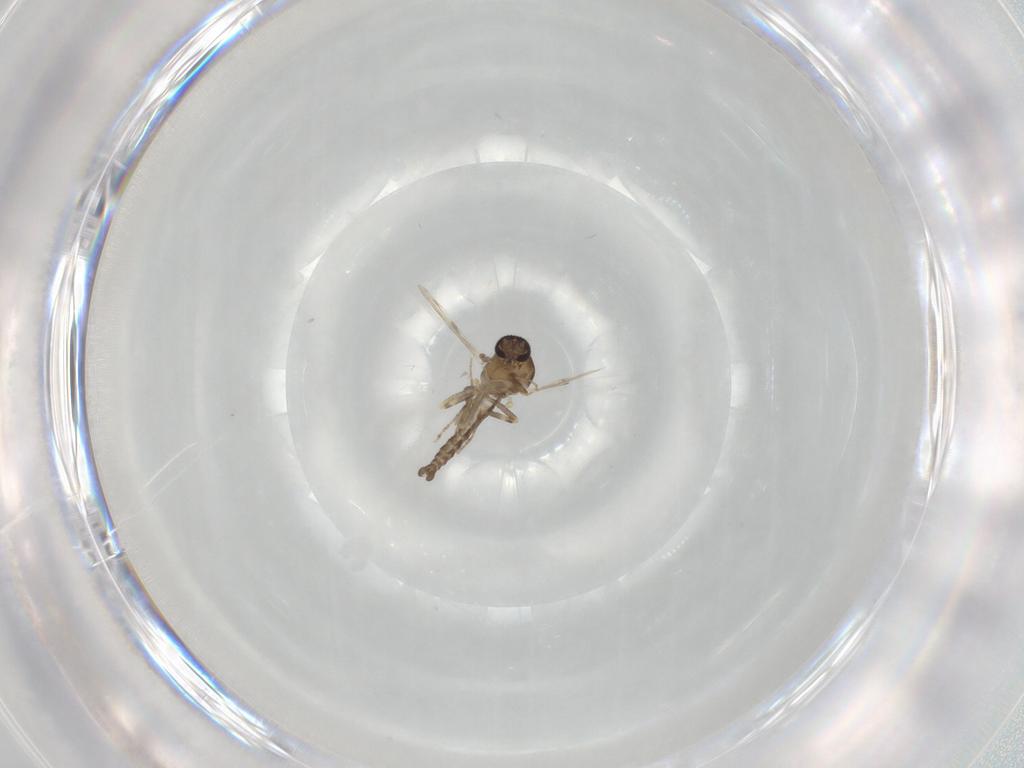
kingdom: Animalia
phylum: Arthropoda
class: Insecta
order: Diptera
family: Ceratopogonidae
